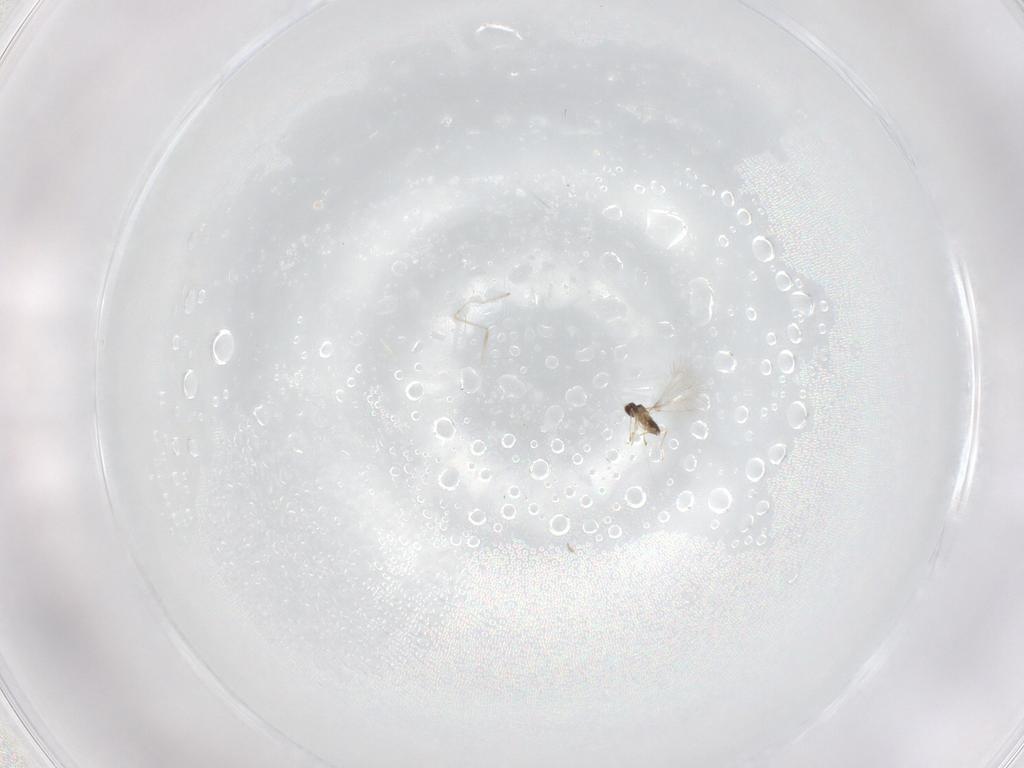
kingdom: Animalia
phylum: Arthropoda
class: Insecta
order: Hymenoptera
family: Mymaridae
